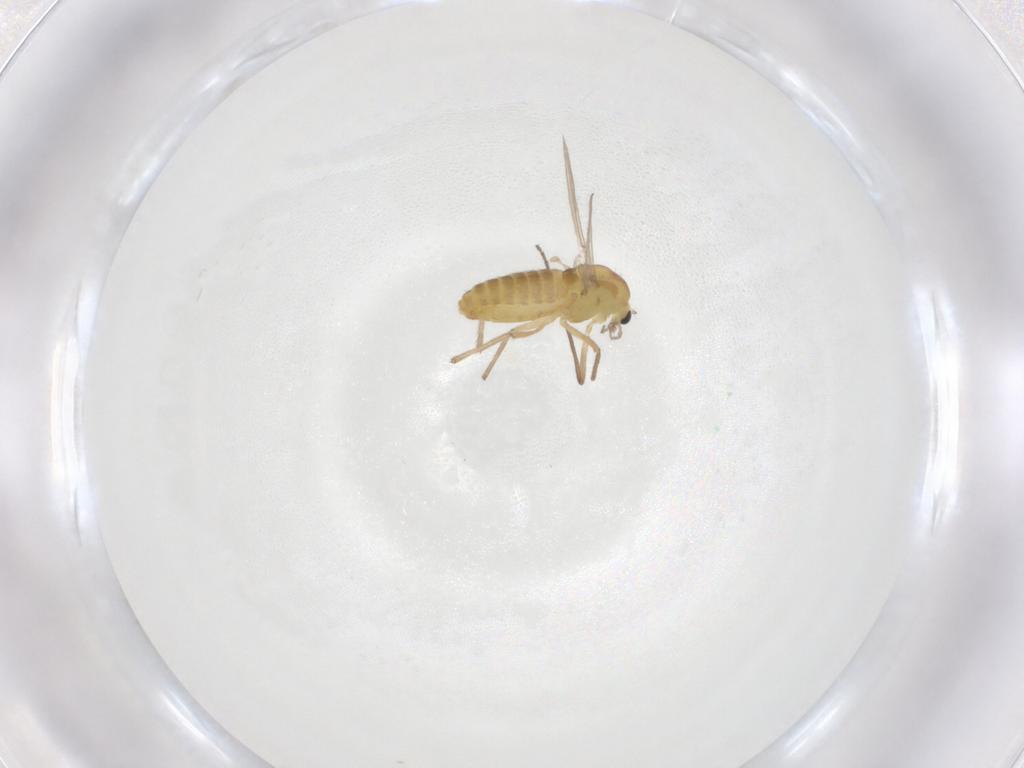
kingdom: Animalia
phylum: Arthropoda
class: Insecta
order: Diptera
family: Chironomidae
